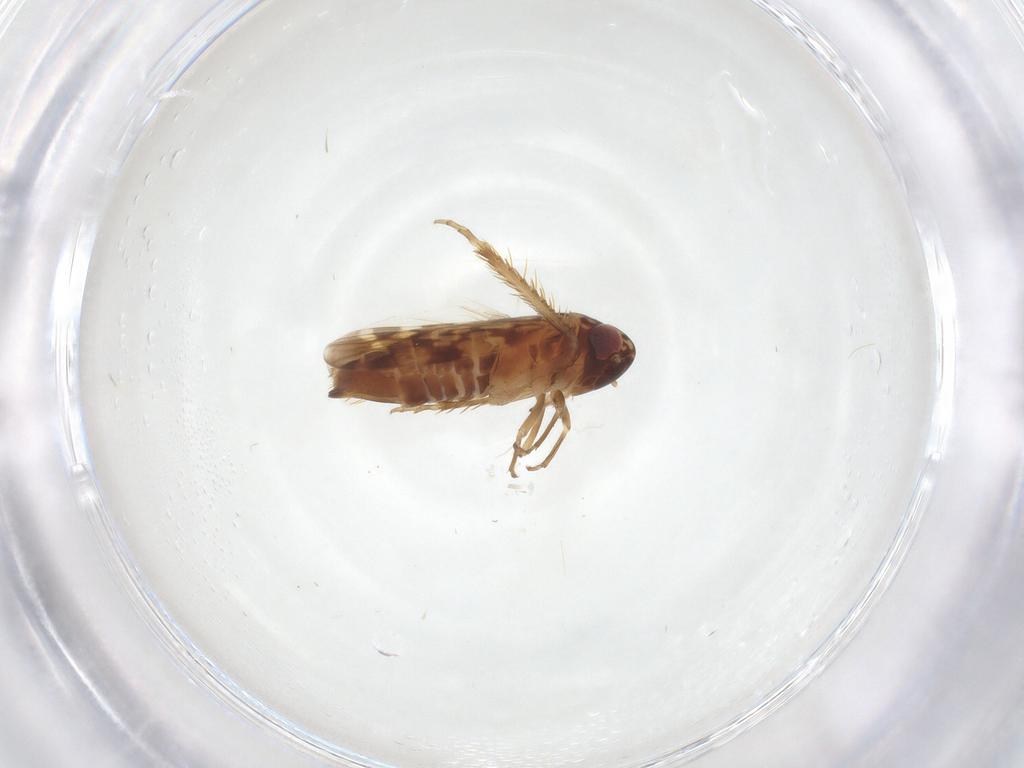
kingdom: Animalia
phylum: Arthropoda
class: Insecta
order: Hemiptera
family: Cicadellidae
